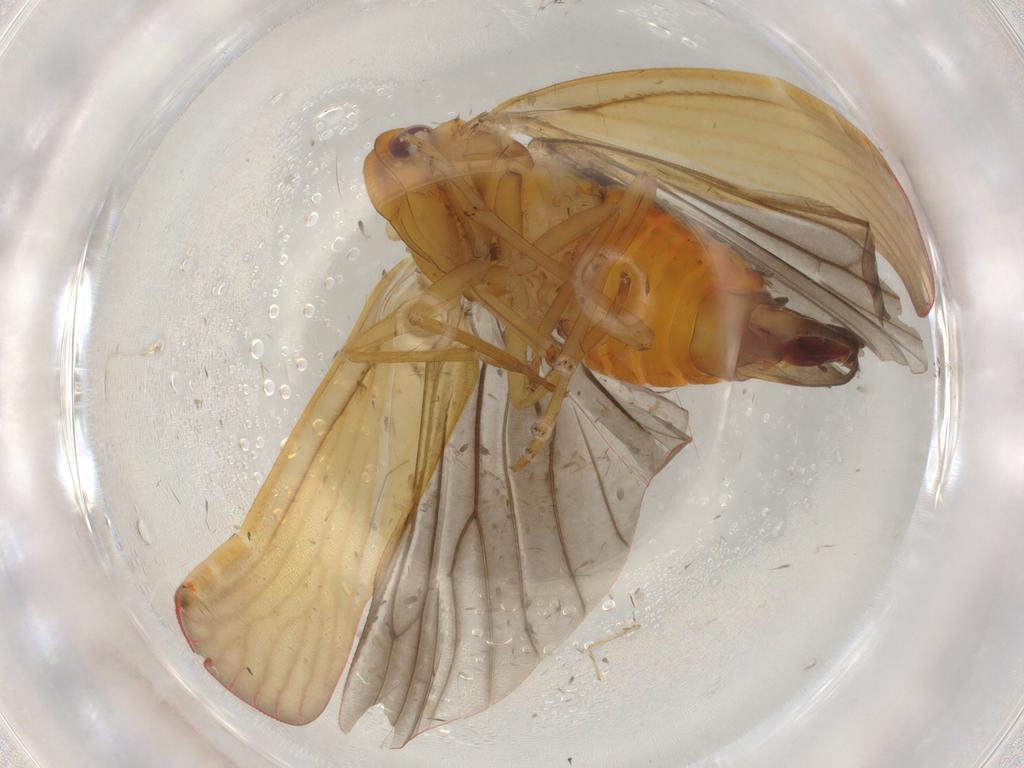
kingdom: Animalia
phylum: Arthropoda
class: Insecta
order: Hemiptera
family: Derbidae
